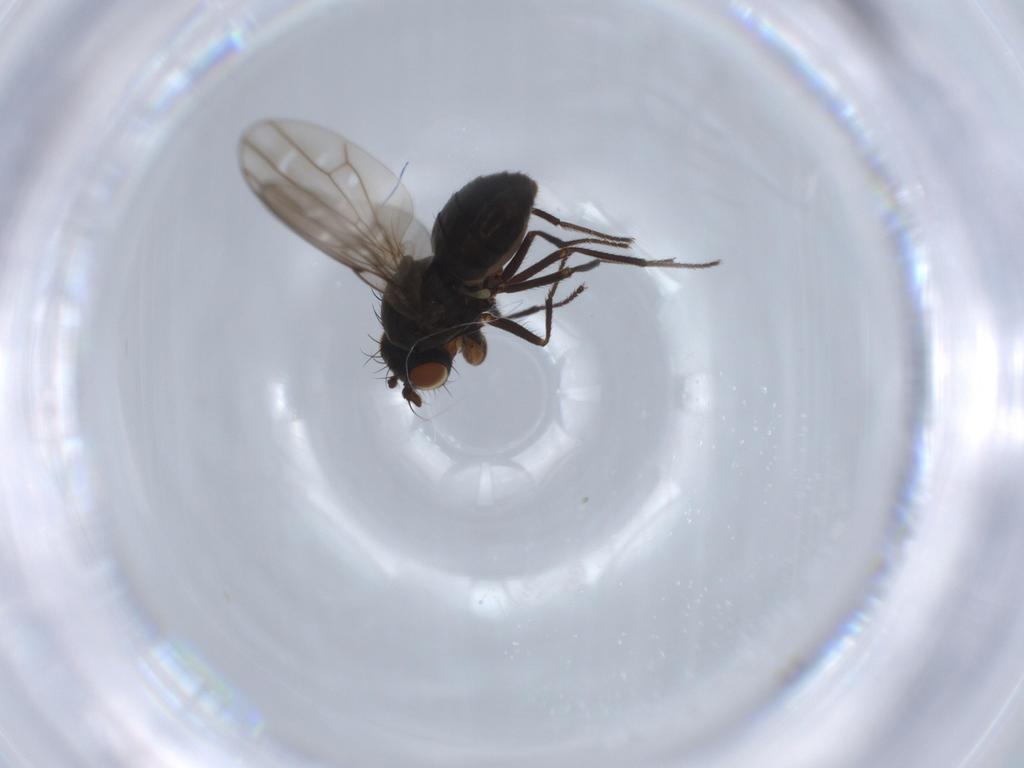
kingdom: Animalia
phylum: Arthropoda
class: Insecta
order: Diptera
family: Ephydridae
